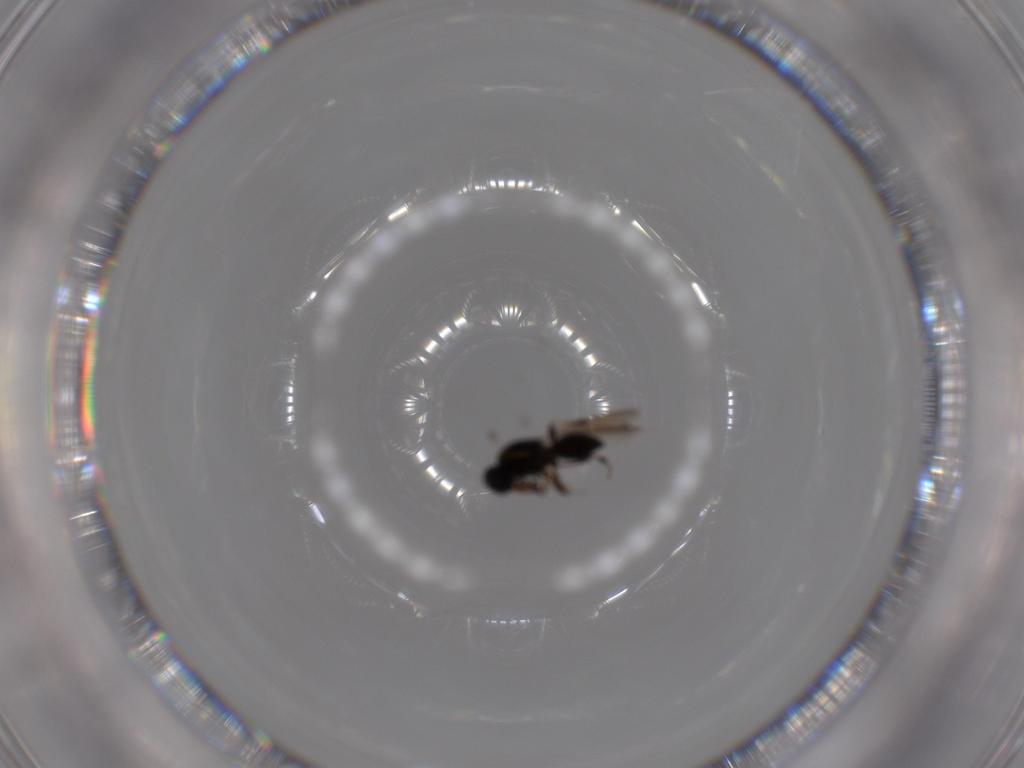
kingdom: Animalia
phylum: Arthropoda
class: Insecta
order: Hymenoptera
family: Platygastridae
